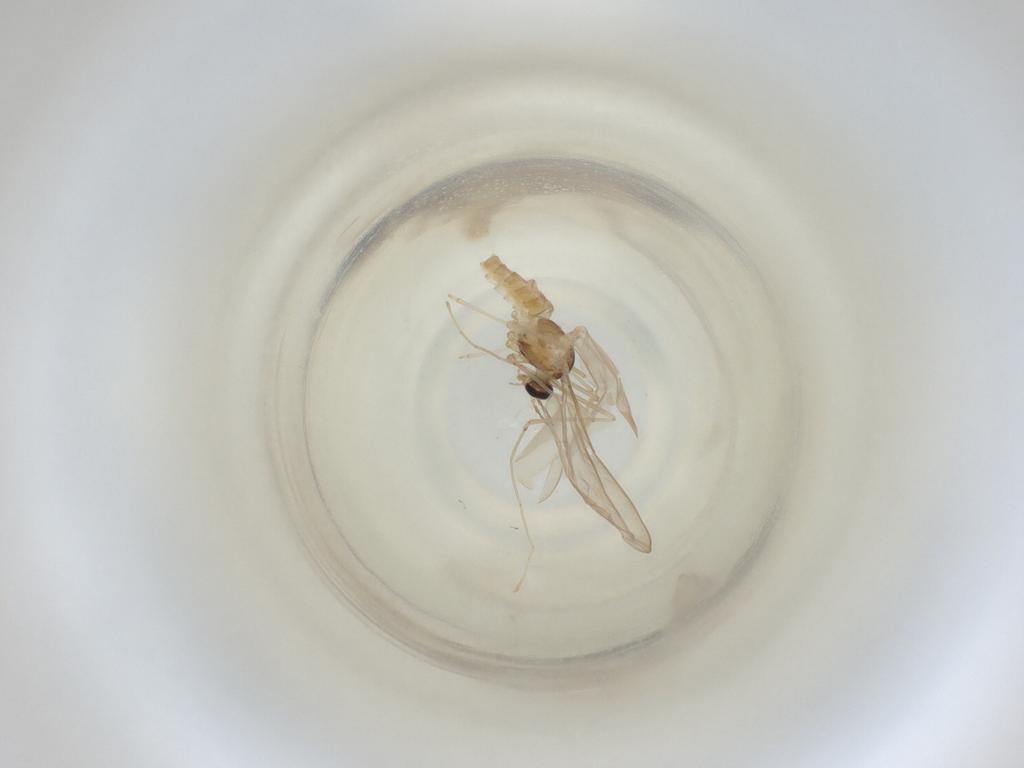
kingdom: Animalia
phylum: Arthropoda
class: Insecta
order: Diptera
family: Cecidomyiidae
